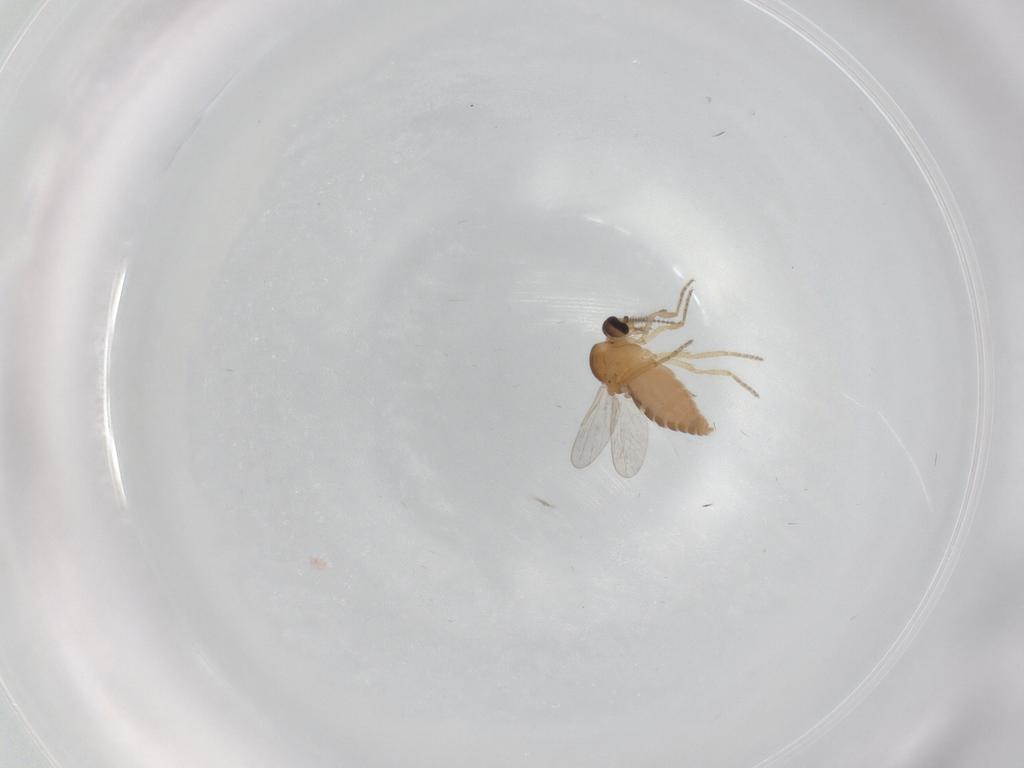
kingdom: Animalia
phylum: Arthropoda
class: Insecta
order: Diptera
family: Ceratopogonidae
